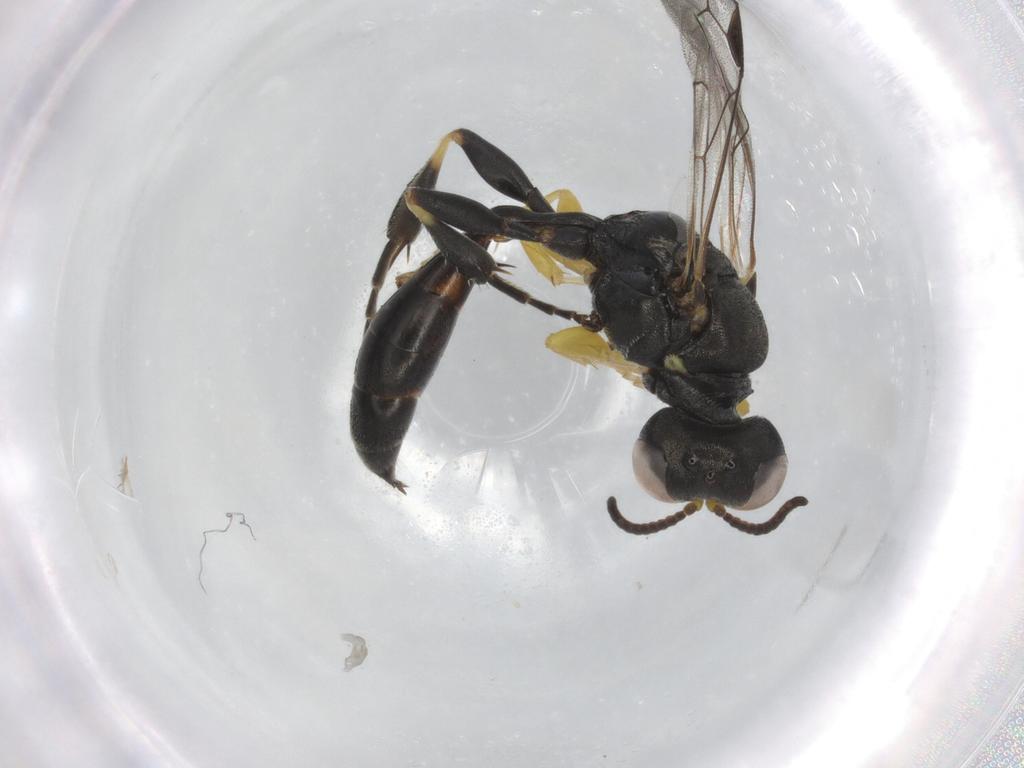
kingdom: Animalia
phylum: Arthropoda
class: Insecta
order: Hymenoptera
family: Crabronidae
